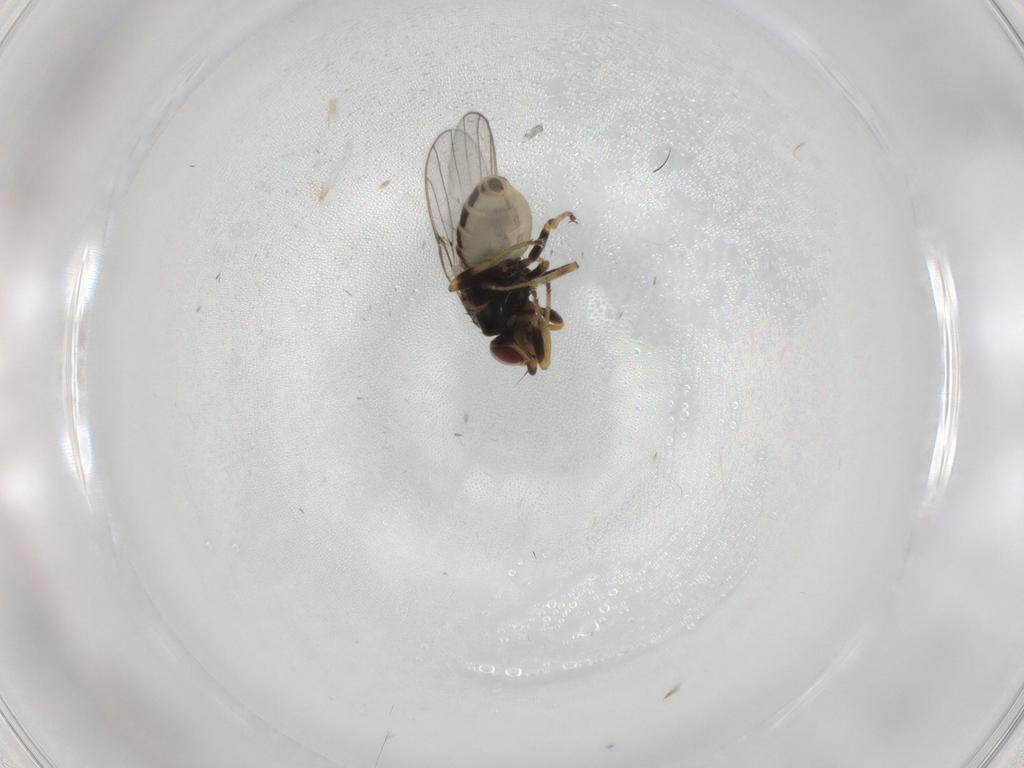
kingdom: Animalia
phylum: Arthropoda
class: Insecta
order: Diptera
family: Chloropidae
